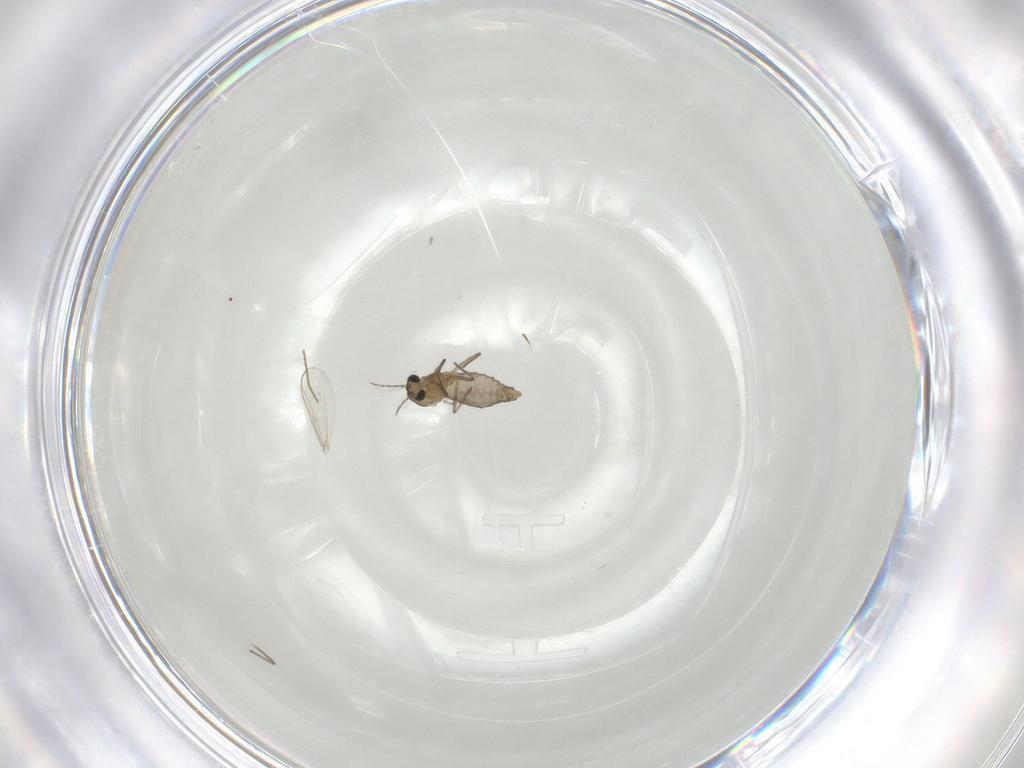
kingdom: Animalia
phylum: Arthropoda
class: Insecta
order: Diptera
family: Chironomidae
